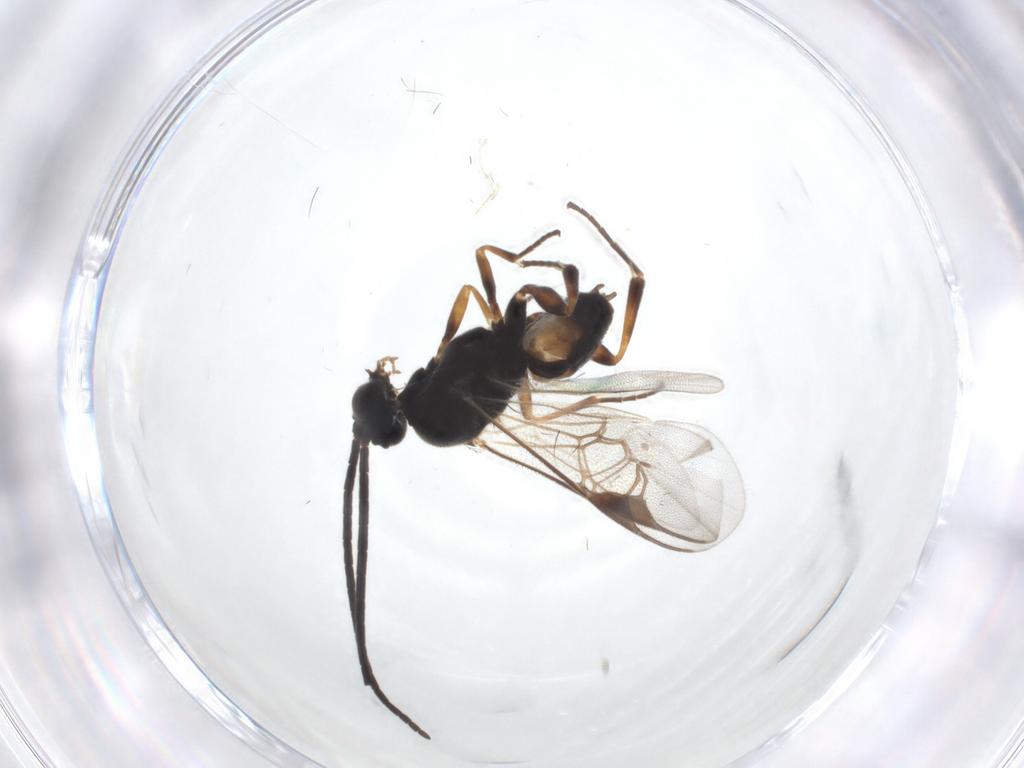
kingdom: Animalia
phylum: Arthropoda
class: Insecta
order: Hymenoptera
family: Braconidae
